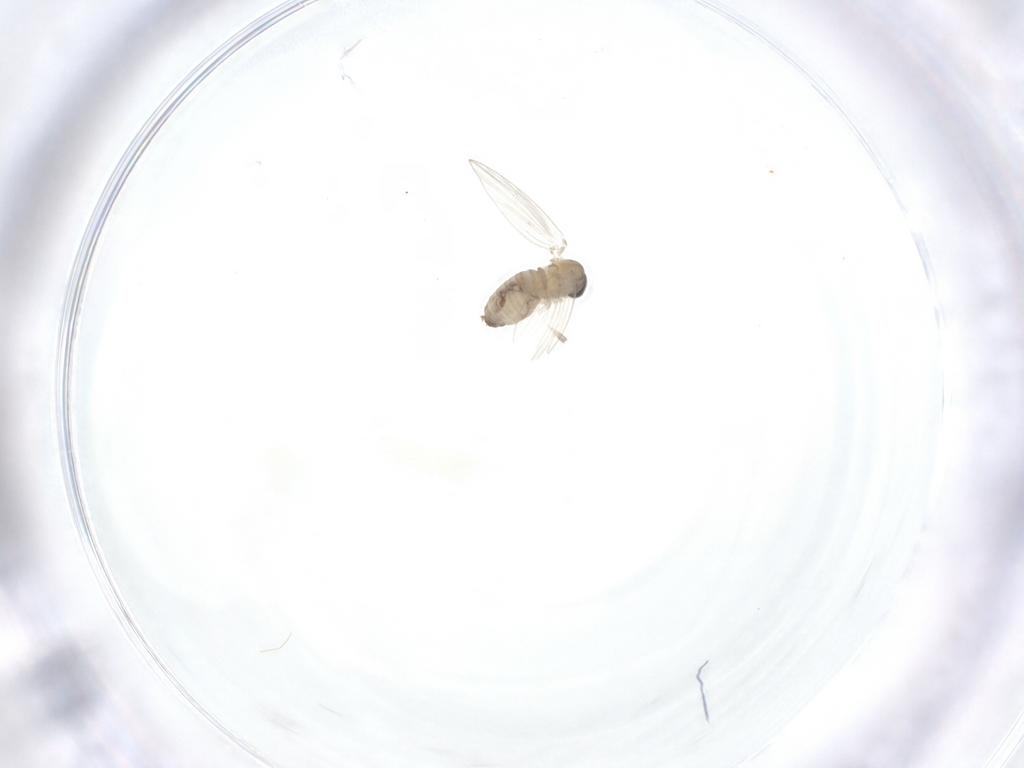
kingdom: Animalia
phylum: Arthropoda
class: Insecta
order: Diptera
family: Psychodidae
